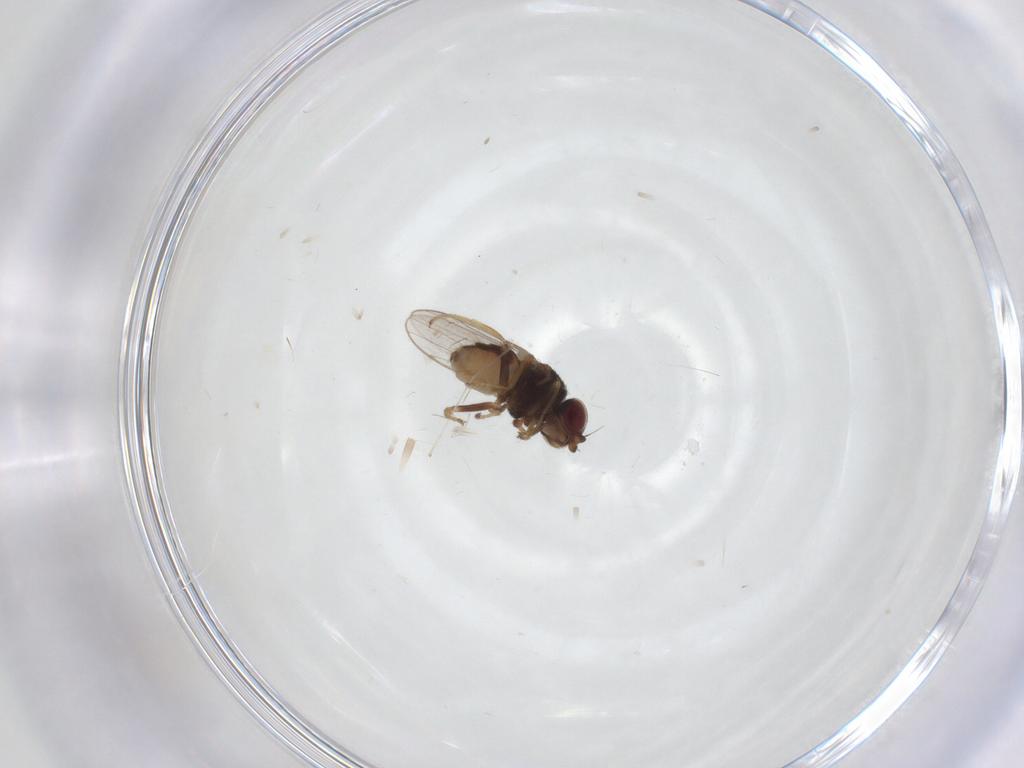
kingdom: Animalia
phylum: Arthropoda
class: Insecta
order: Diptera
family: Chloropidae
